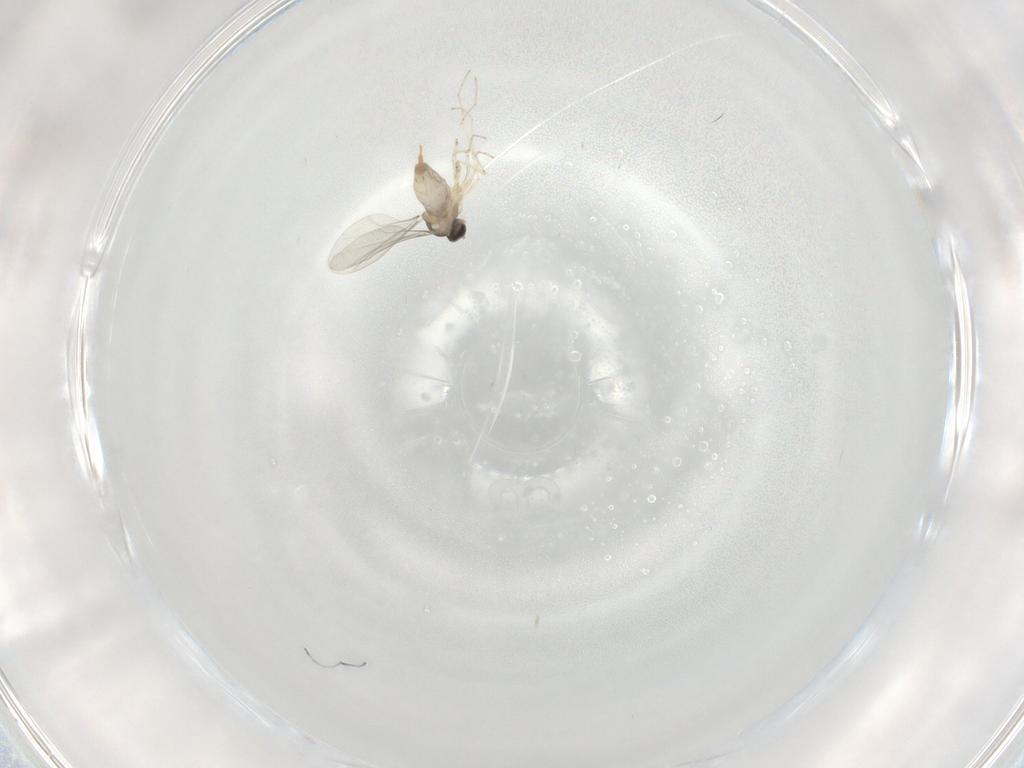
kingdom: Animalia
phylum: Arthropoda
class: Insecta
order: Diptera
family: Cecidomyiidae
